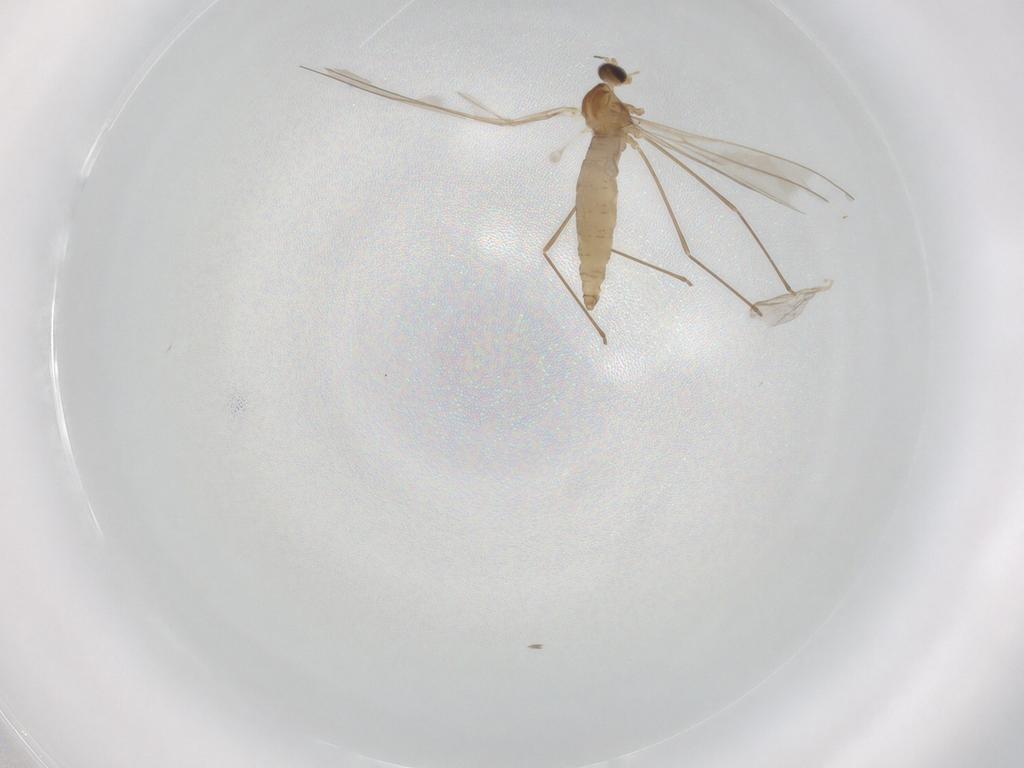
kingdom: Animalia
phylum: Arthropoda
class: Insecta
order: Diptera
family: Cecidomyiidae
